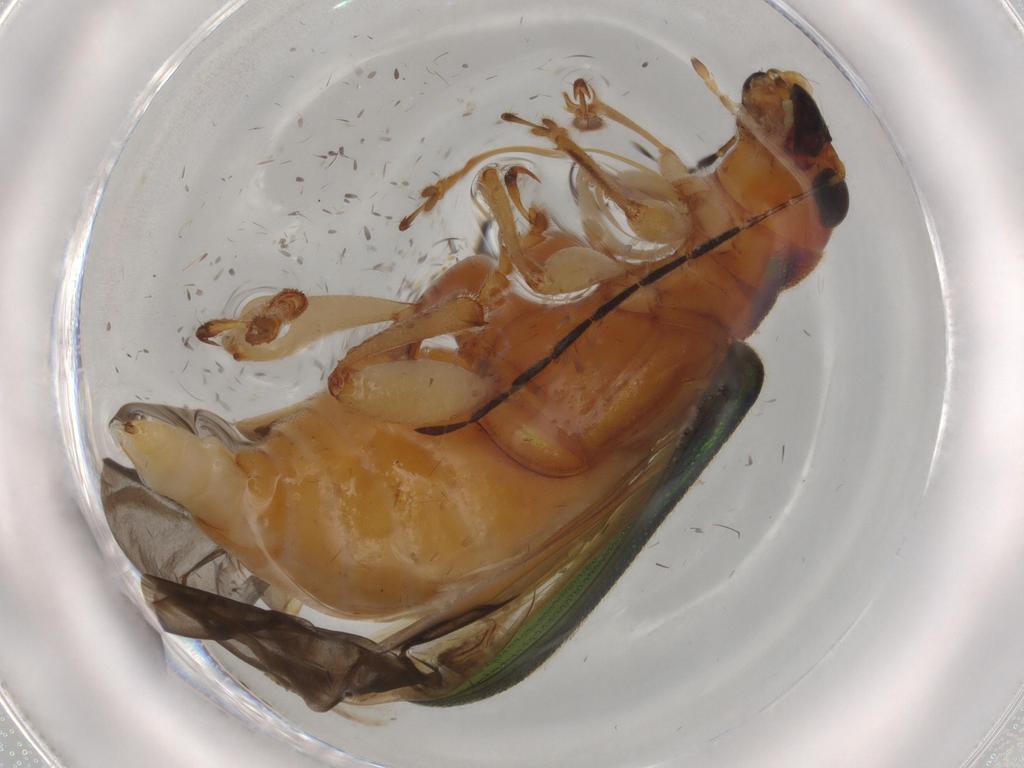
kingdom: Animalia
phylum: Arthropoda
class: Insecta
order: Coleoptera
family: Chrysomelidae
